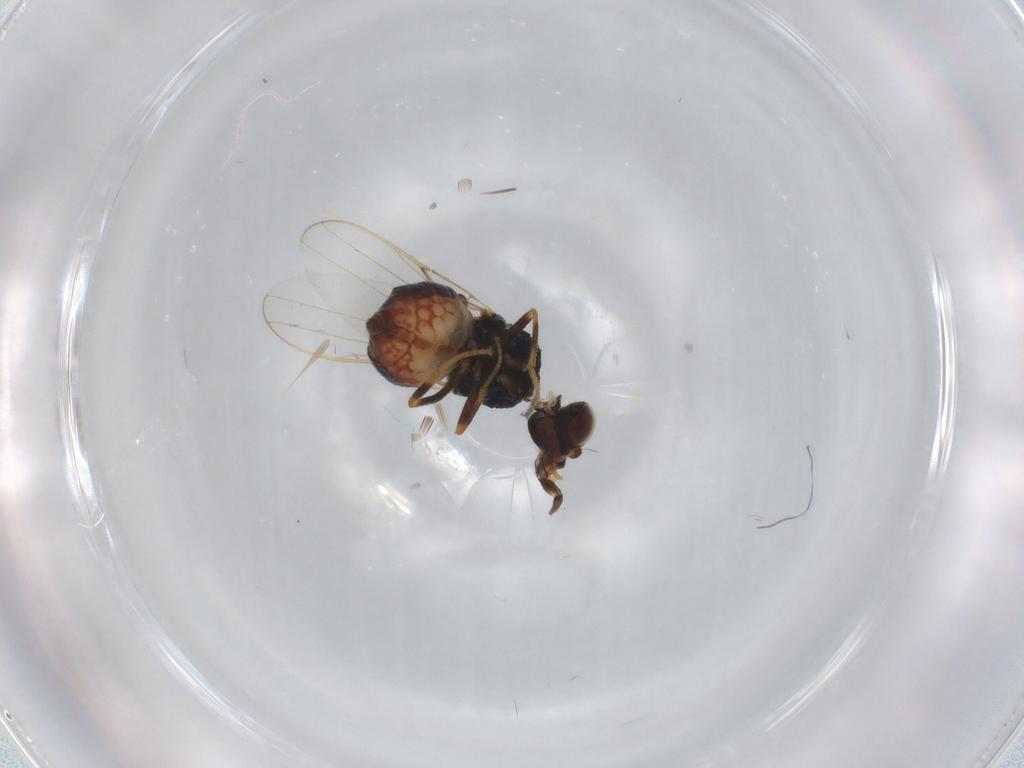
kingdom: Animalia
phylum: Arthropoda
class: Insecta
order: Diptera
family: Chloropidae
